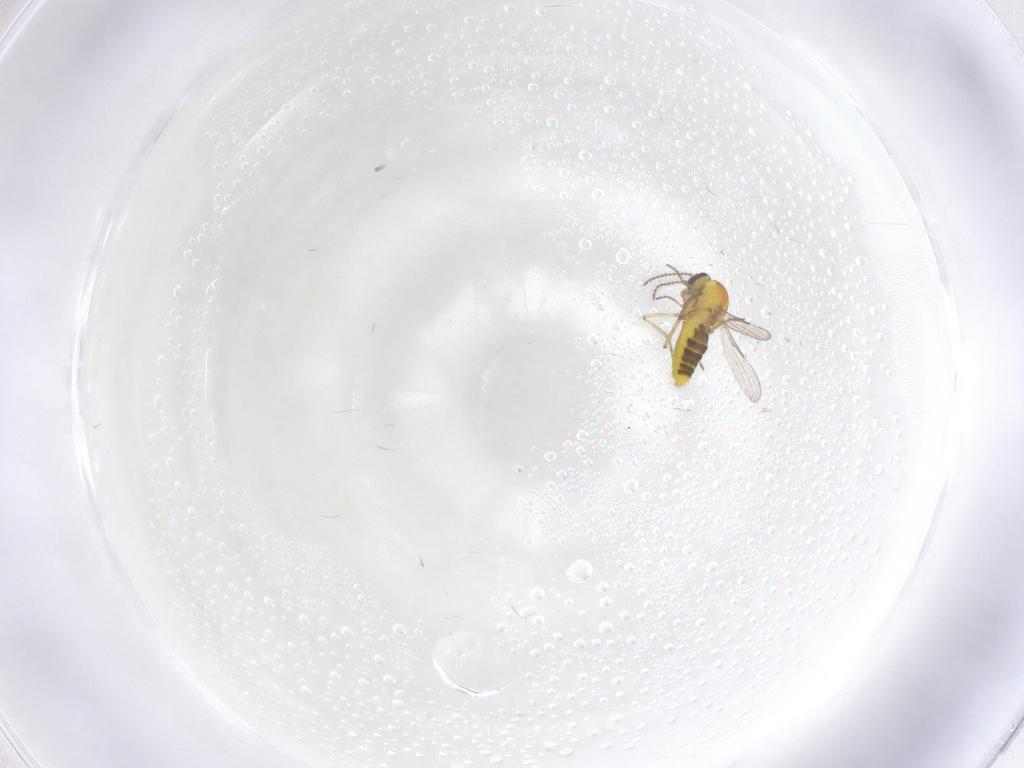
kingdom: Animalia
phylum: Arthropoda
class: Insecta
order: Diptera
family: Ceratopogonidae
